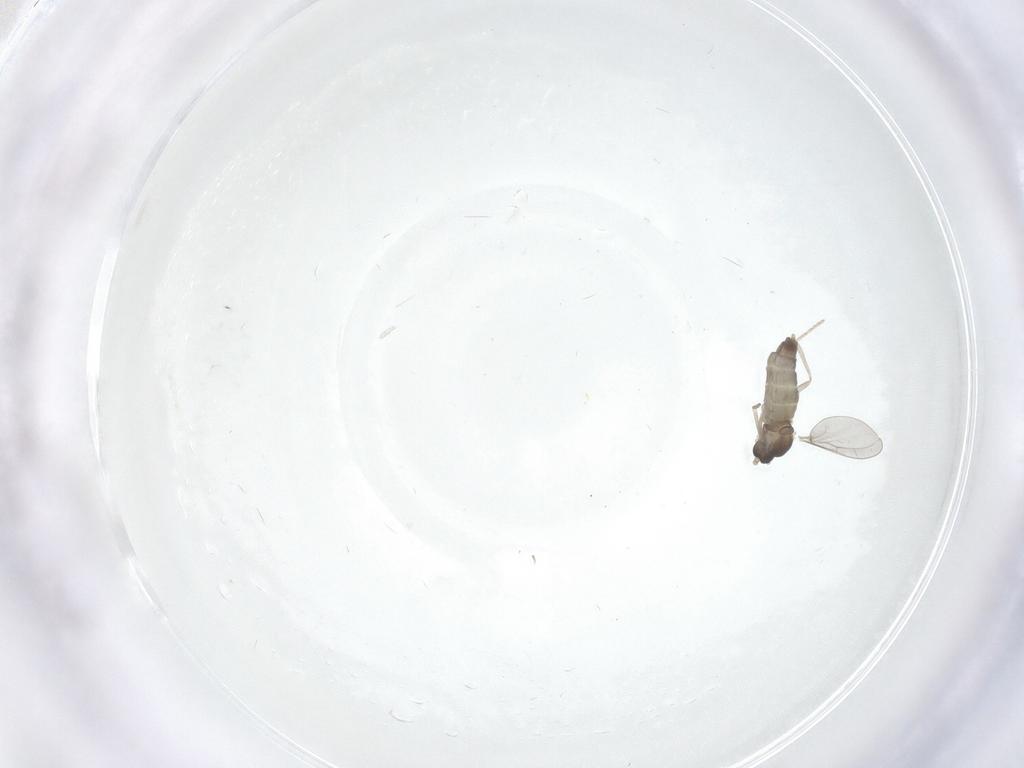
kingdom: Animalia
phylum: Arthropoda
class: Insecta
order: Diptera
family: Cecidomyiidae
